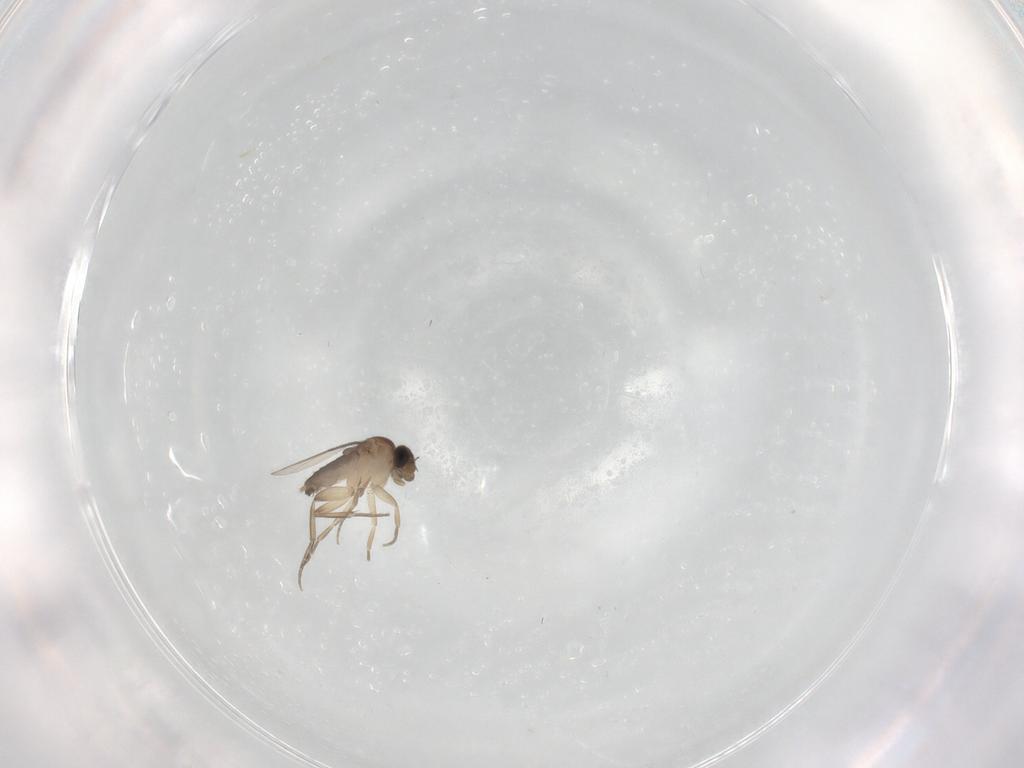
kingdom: Animalia
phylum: Arthropoda
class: Insecta
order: Diptera
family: Phoridae
